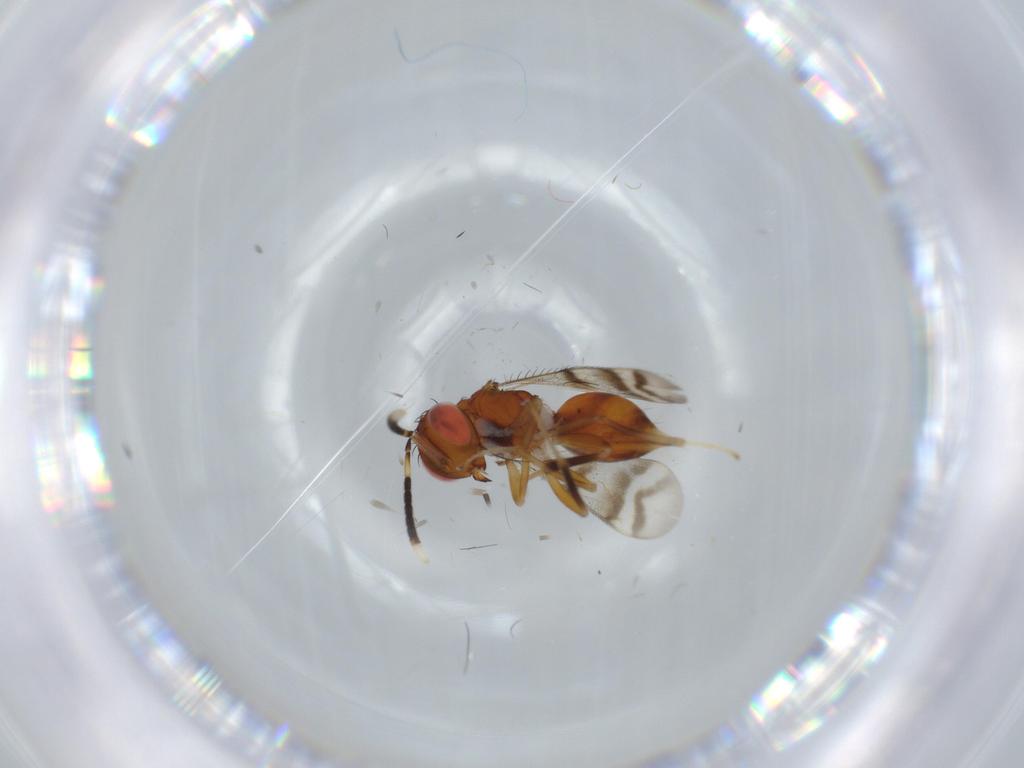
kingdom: Animalia
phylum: Arthropoda
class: Insecta
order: Hymenoptera
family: Diparidae
